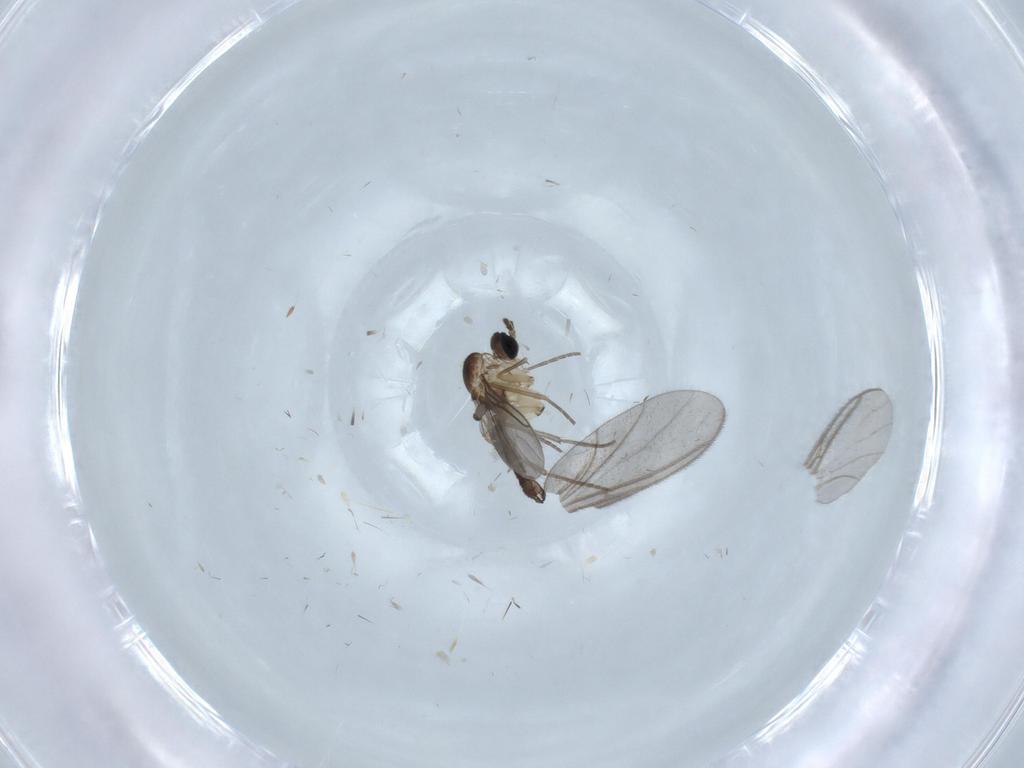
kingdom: Animalia
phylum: Arthropoda
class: Insecta
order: Diptera
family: Sciaridae
